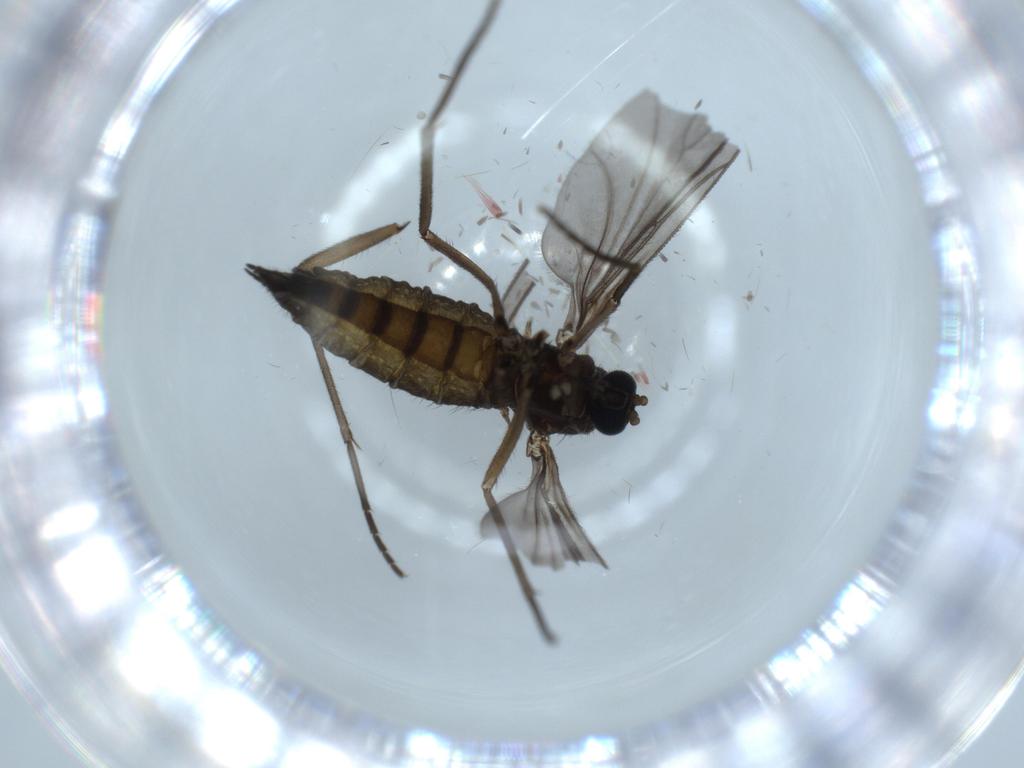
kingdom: Animalia
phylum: Arthropoda
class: Insecta
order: Diptera
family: Sciaridae
